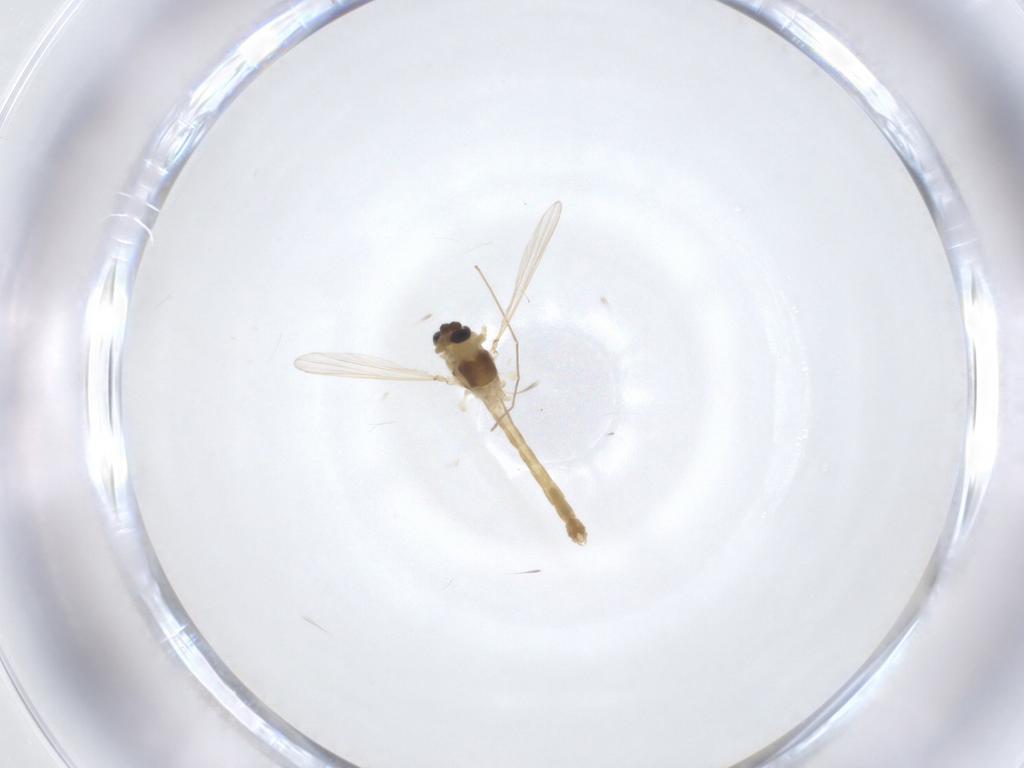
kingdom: Animalia
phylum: Arthropoda
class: Insecta
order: Diptera
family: Chironomidae
